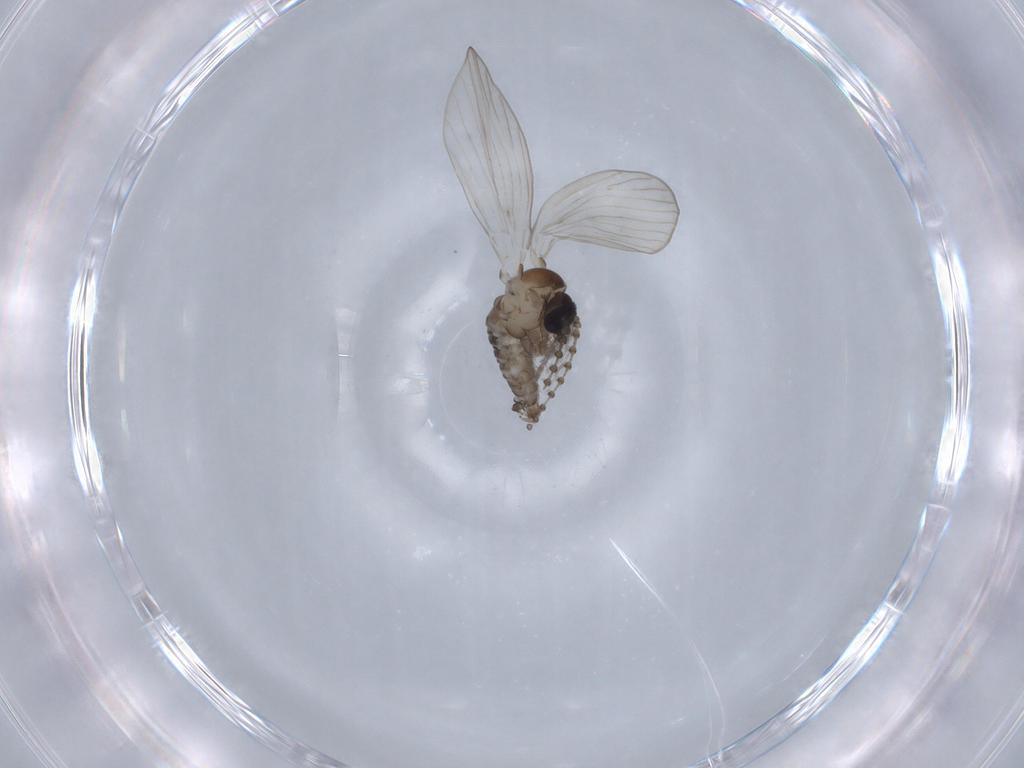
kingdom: Animalia
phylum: Arthropoda
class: Insecta
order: Diptera
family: Psychodidae
